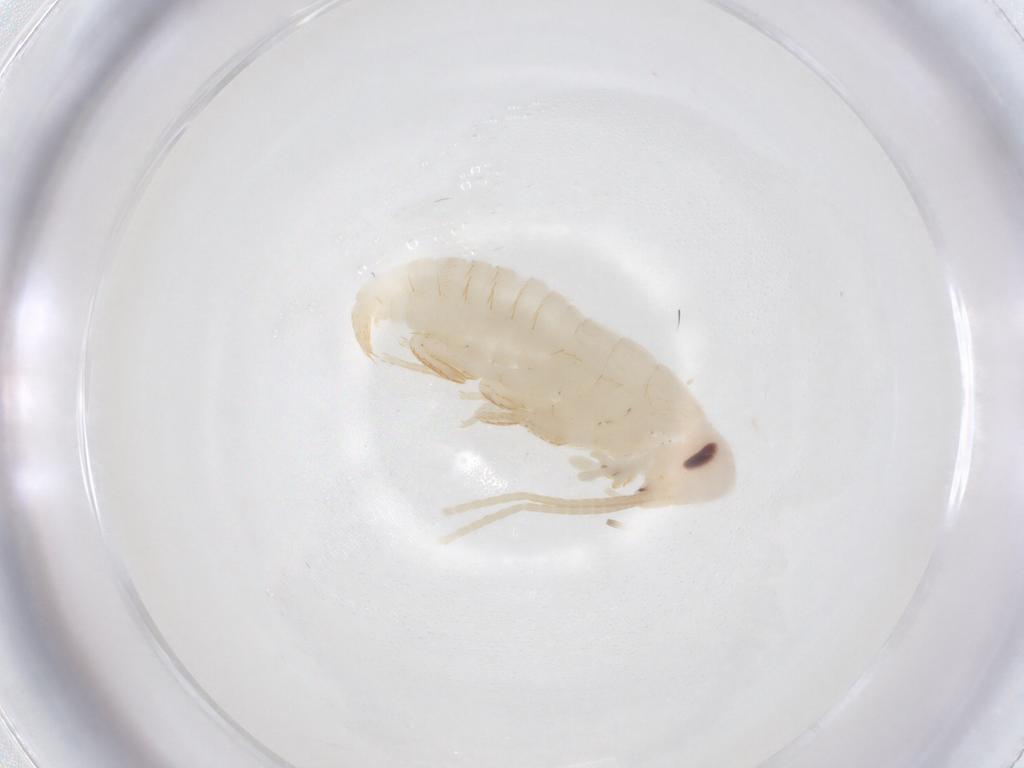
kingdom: Animalia
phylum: Arthropoda
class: Insecta
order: Blattodea
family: Ectobiidae
